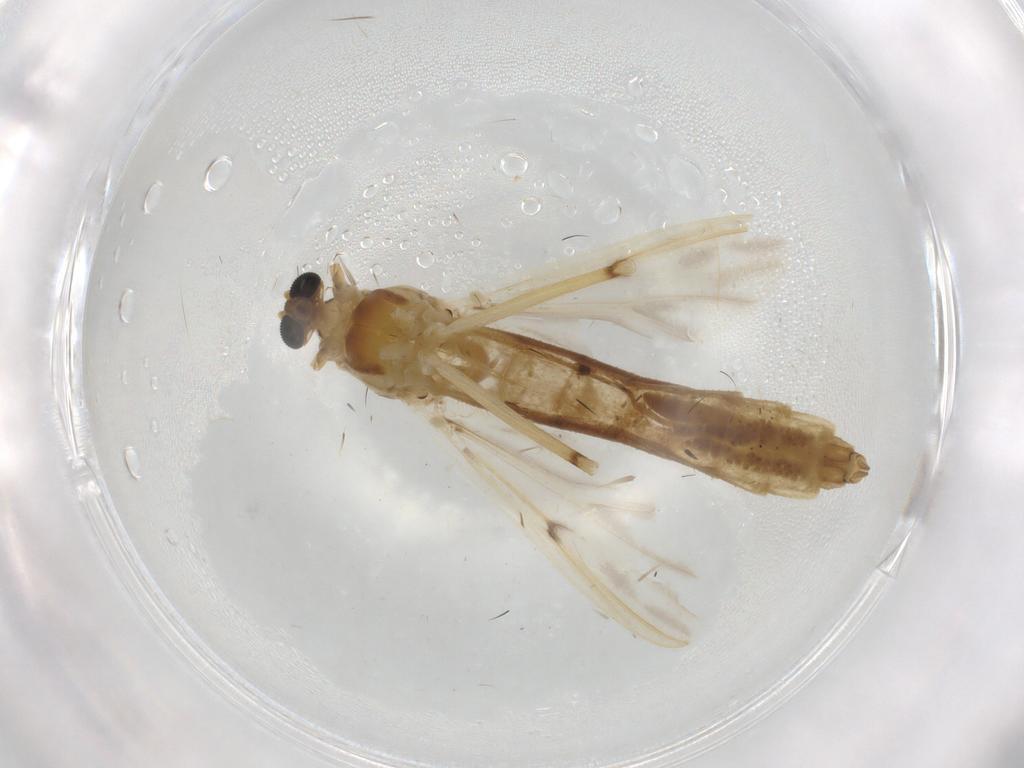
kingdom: Animalia
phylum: Arthropoda
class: Insecta
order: Diptera
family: Chironomidae
